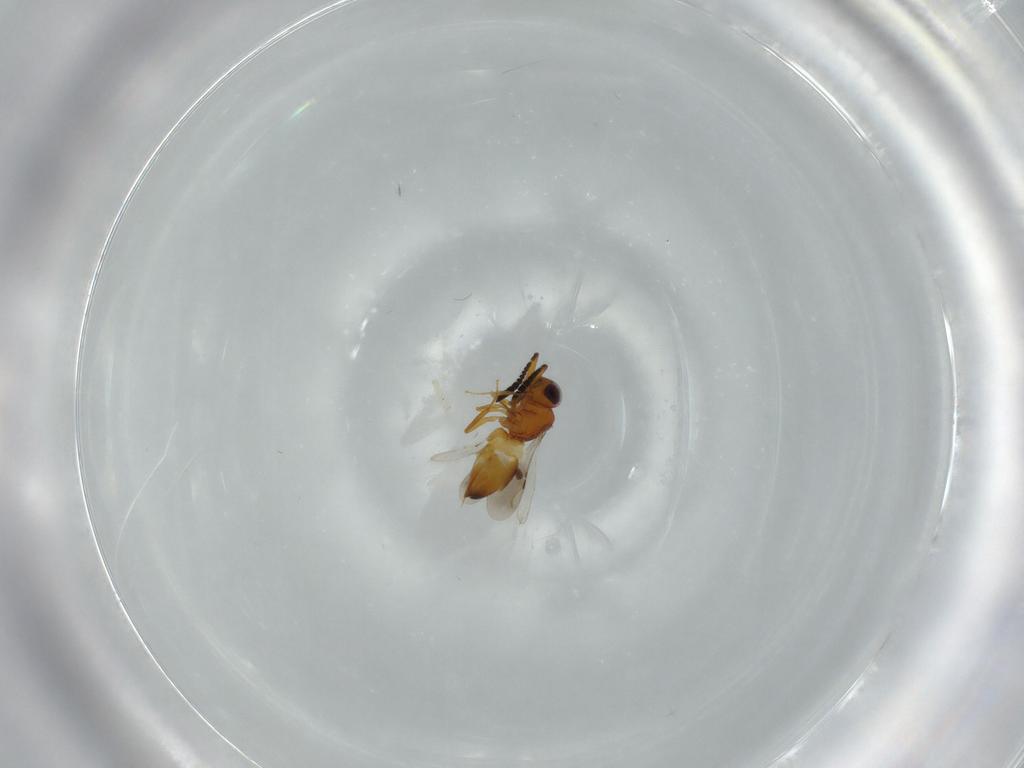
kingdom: Animalia
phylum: Arthropoda
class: Insecta
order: Hymenoptera
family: Ceraphronidae
